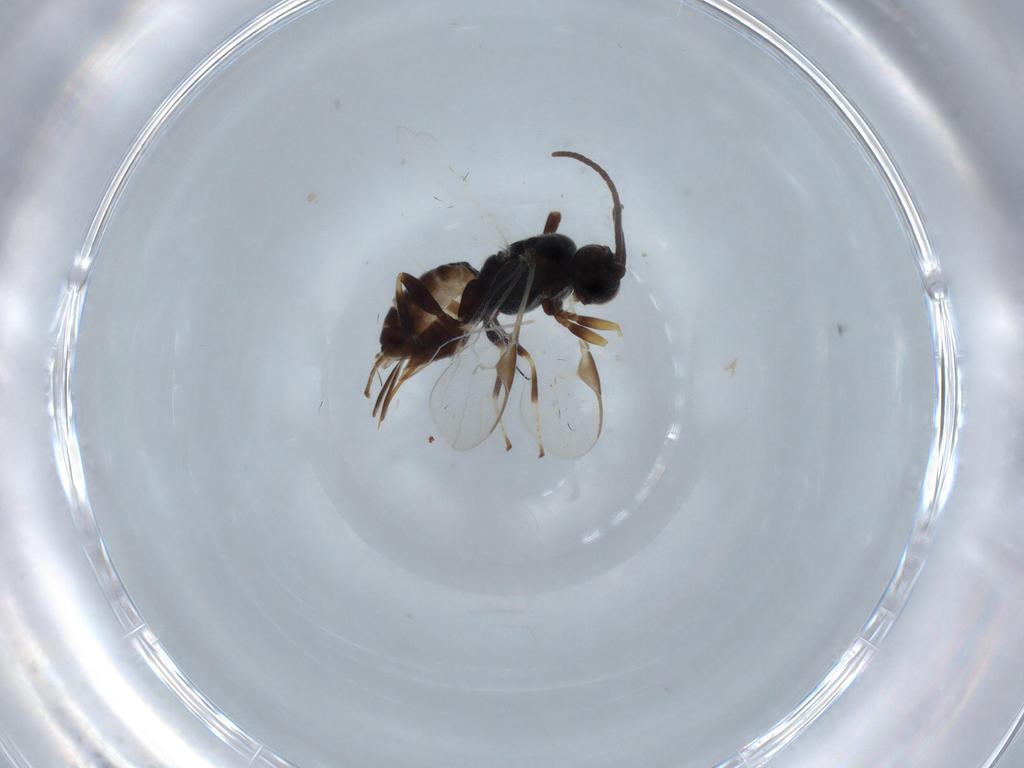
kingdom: Animalia
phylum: Arthropoda
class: Insecta
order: Hymenoptera
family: Braconidae
